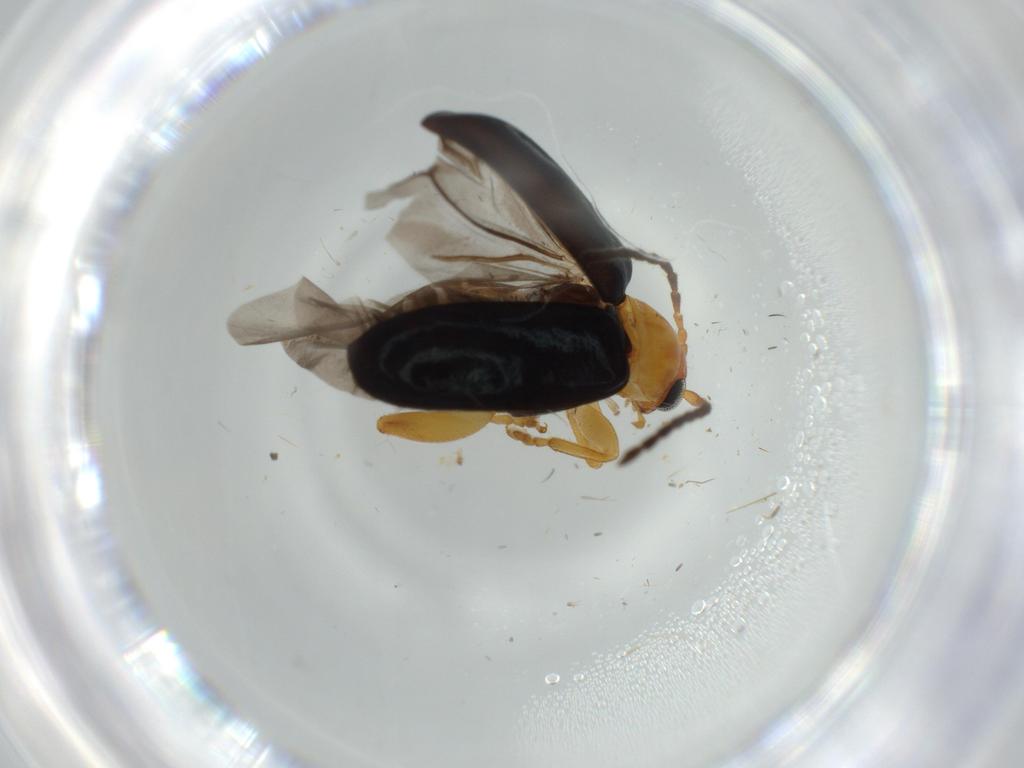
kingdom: Animalia
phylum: Arthropoda
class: Insecta
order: Coleoptera
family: Chrysomelidae
